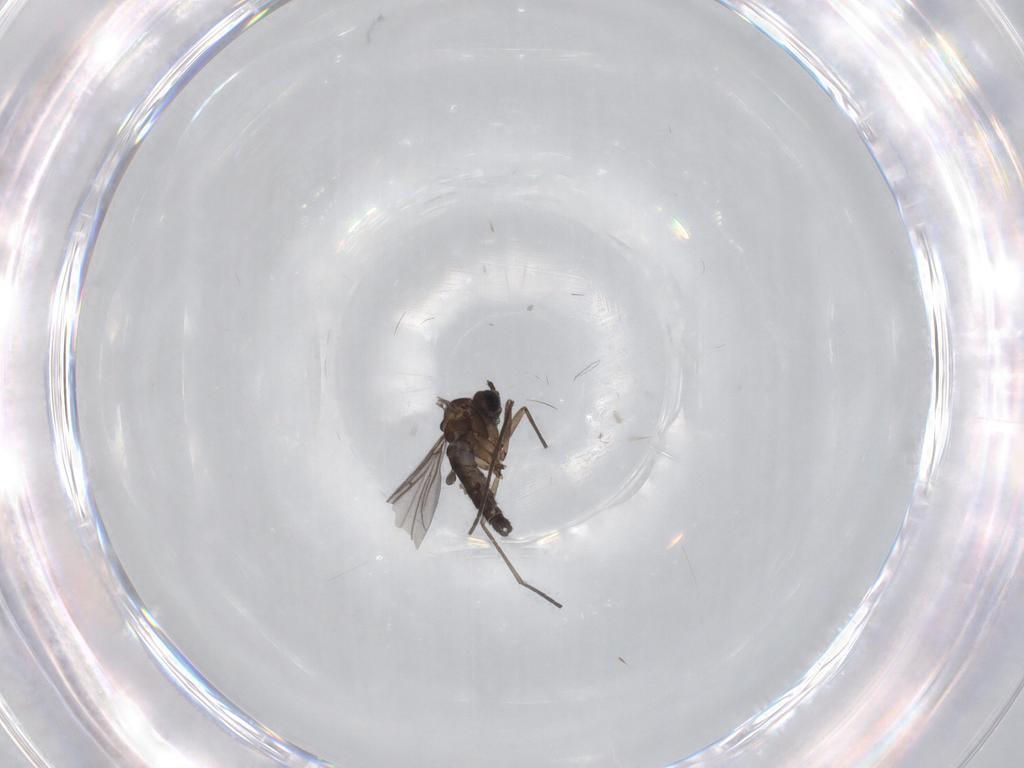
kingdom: Animalia
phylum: Arthropoda
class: Insecta
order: Diptera
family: Sciaridae
